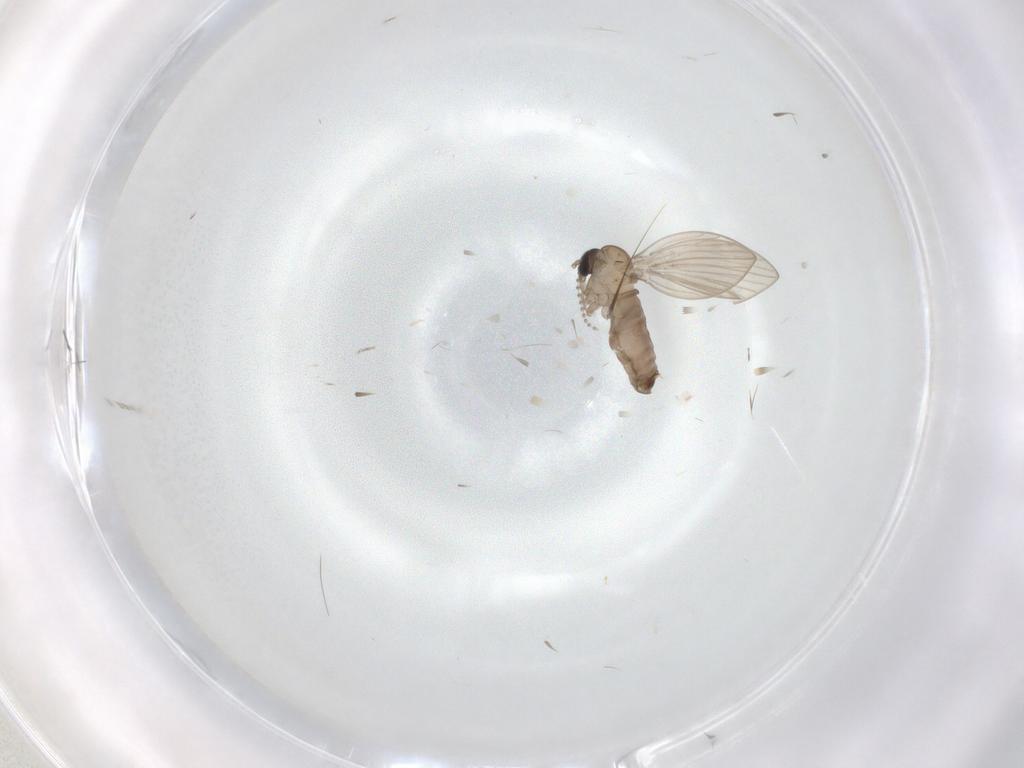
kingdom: Animalia
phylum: Arthropoda
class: Insecta
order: Diptera
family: Psychodidae
